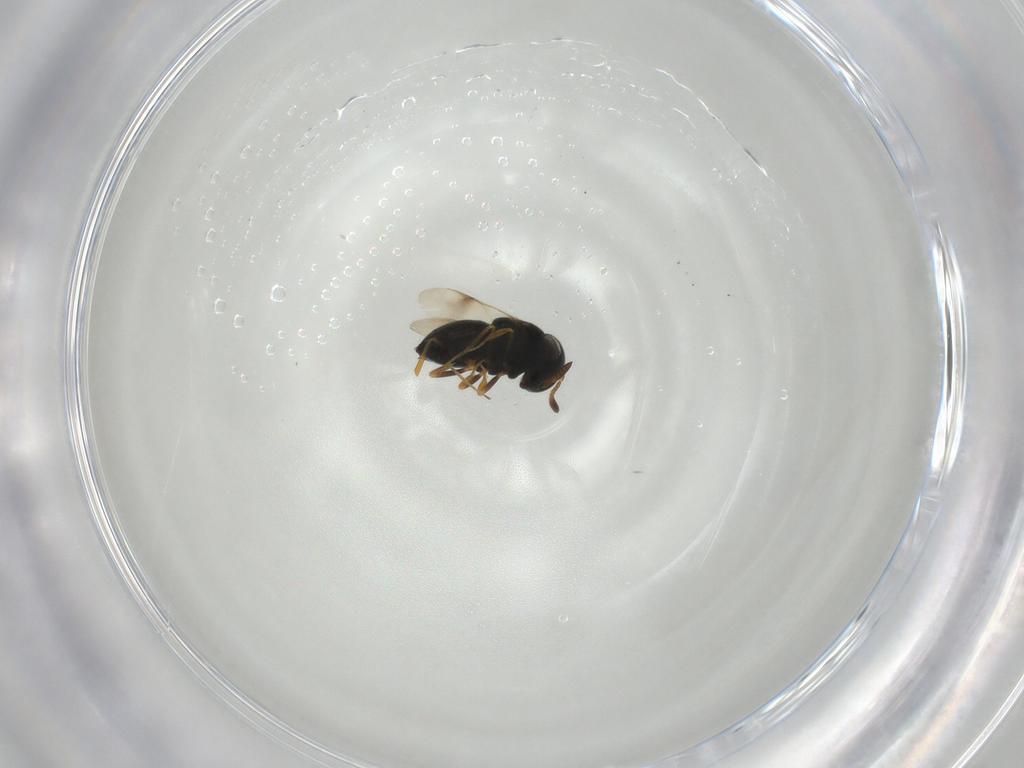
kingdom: Animalia
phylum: Arthropoda
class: Insecta
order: Hymenoptera
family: Scelionidae
